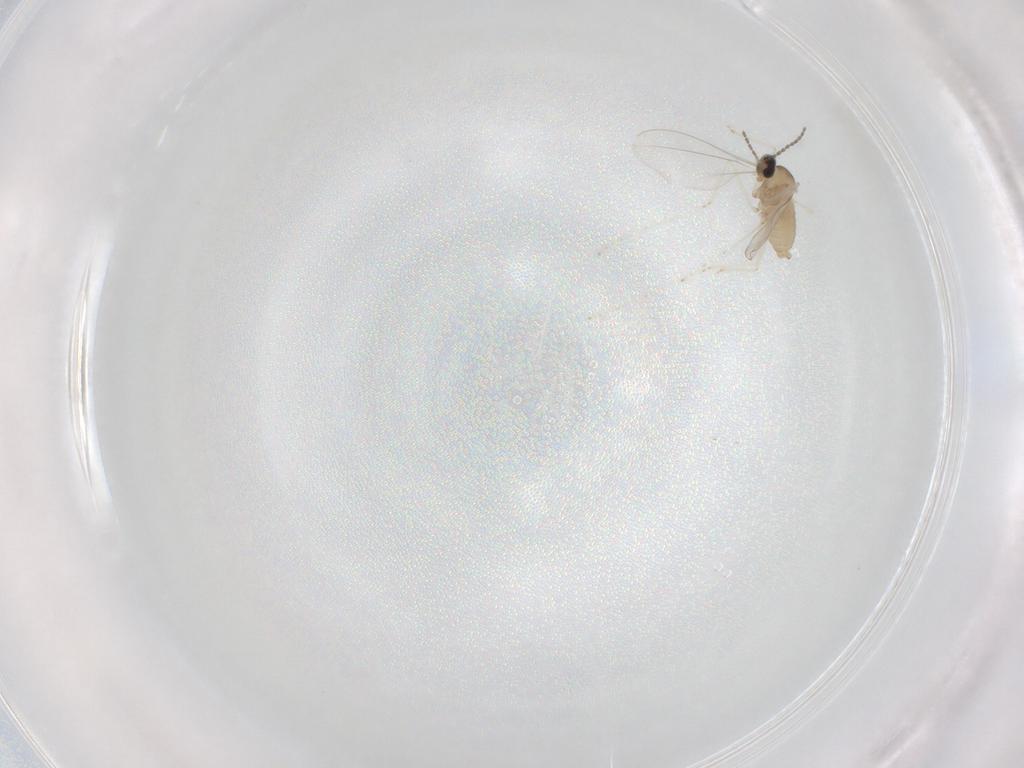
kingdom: Animalia
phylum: Arthropoda
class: Insecta
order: Diptera
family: Cecidomyiidae
